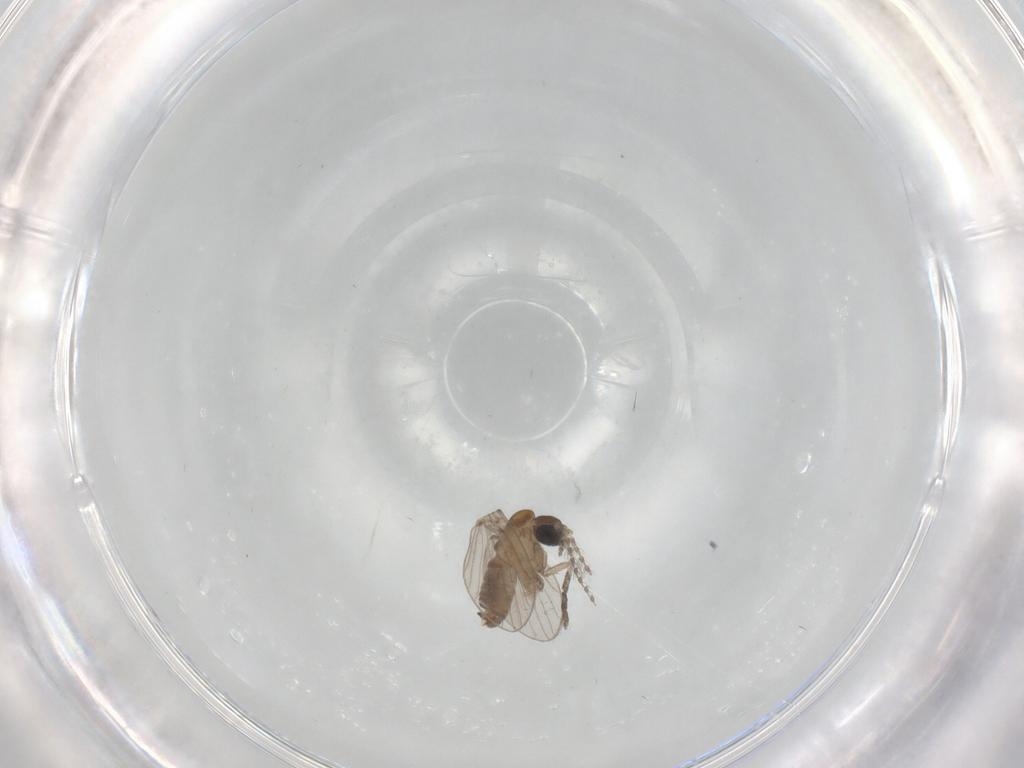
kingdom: Animalia
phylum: Arthropoda
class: Insecta
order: Diptera
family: Psychodidae
